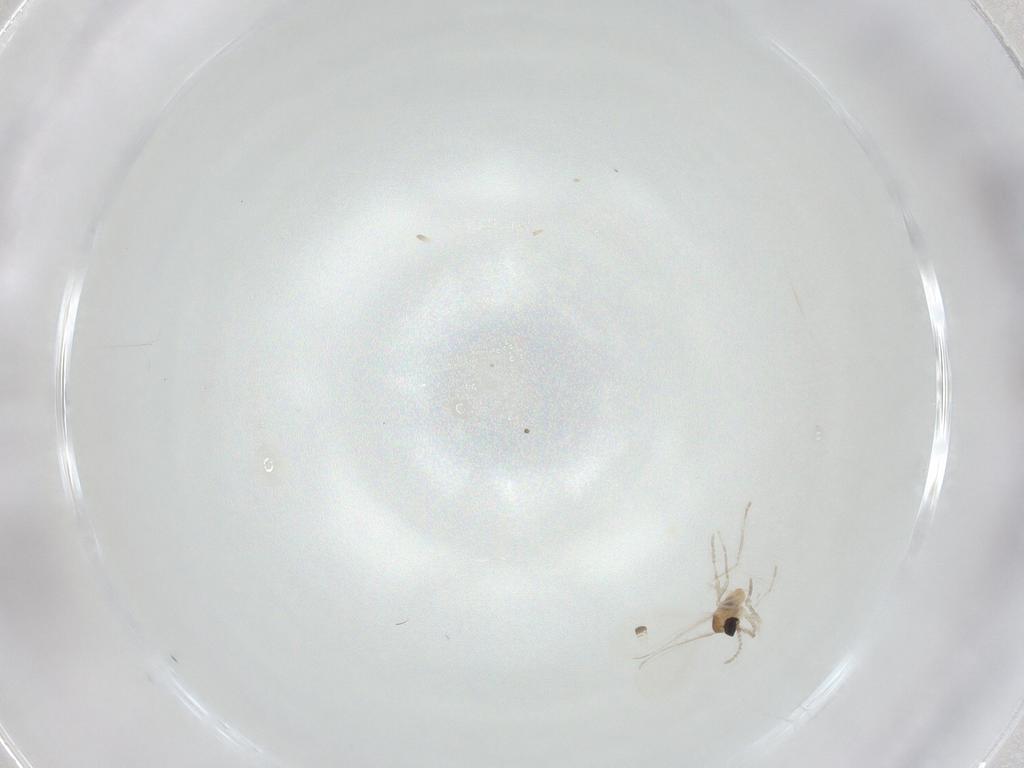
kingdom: Animalia
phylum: Arthropoda
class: Insecta
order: Diptera
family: Cecidomyiidae
